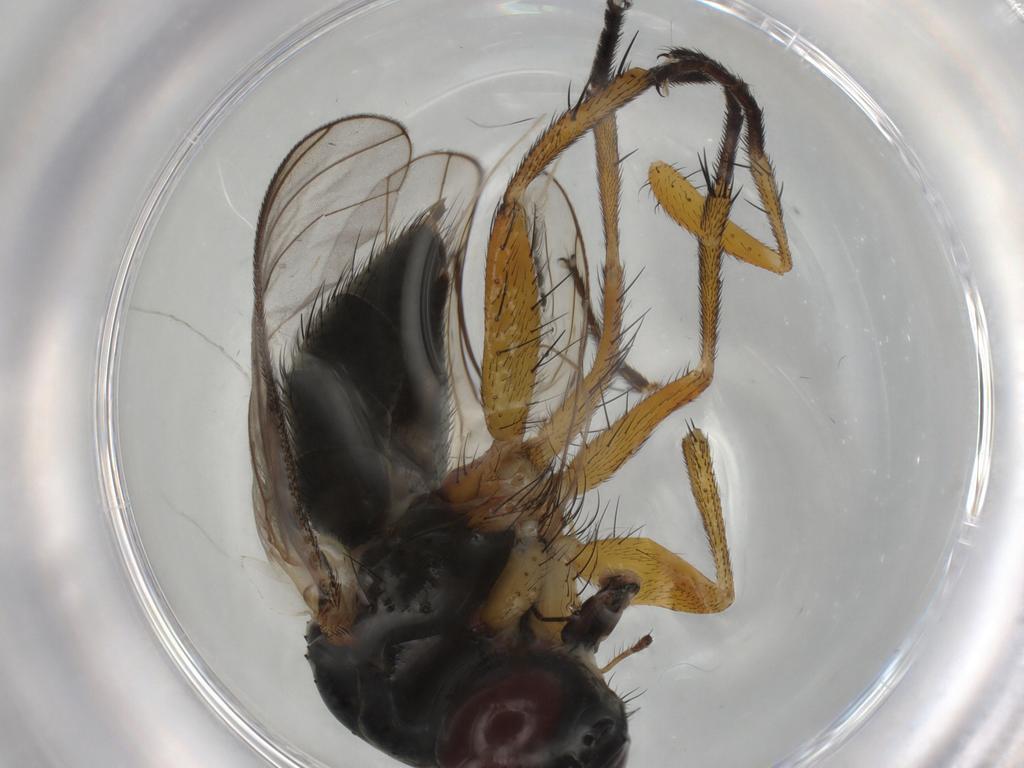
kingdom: Animalia
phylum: Arthropoda
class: Insecta
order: Diptera
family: Muscidae
